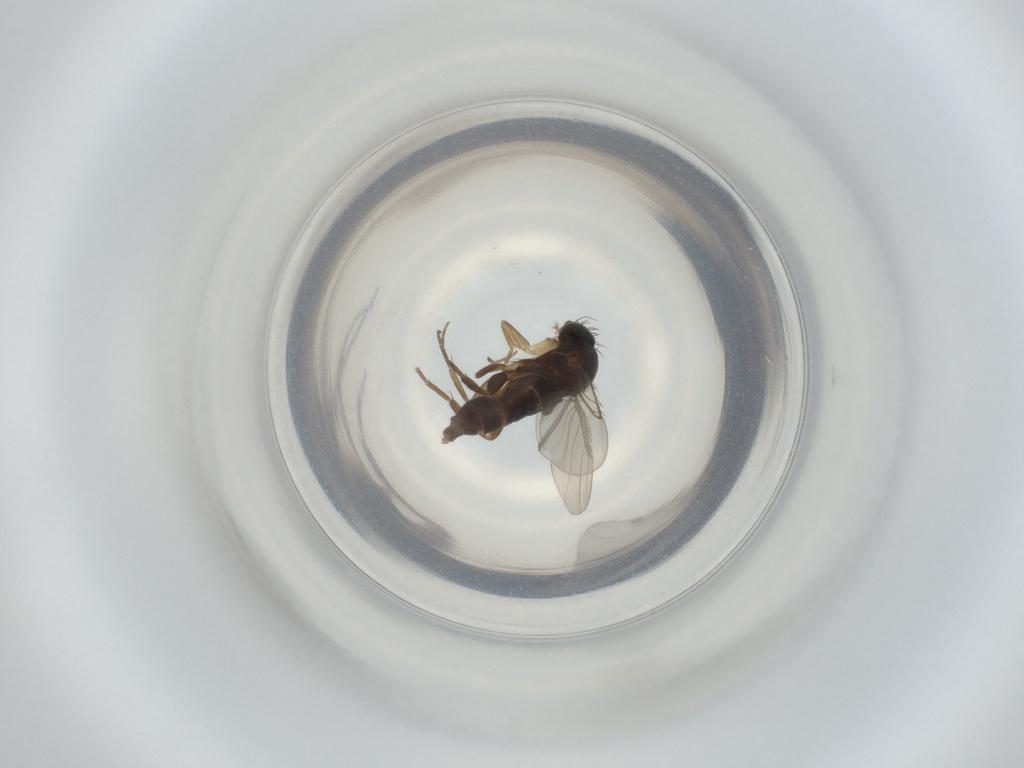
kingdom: Animalia
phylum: Arthropoda
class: Insecta
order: Diptera
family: Phoridae
